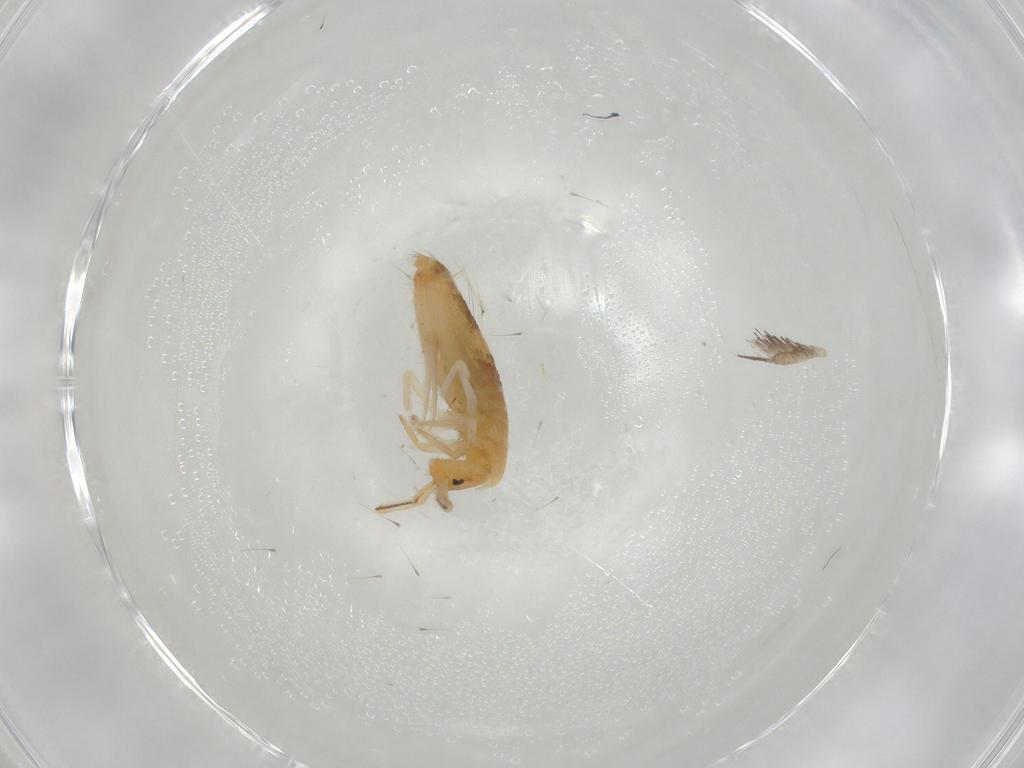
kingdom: Animalia
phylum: Arthropoda
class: Collembola
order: Entomobryomorpha
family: Entomobryidae
